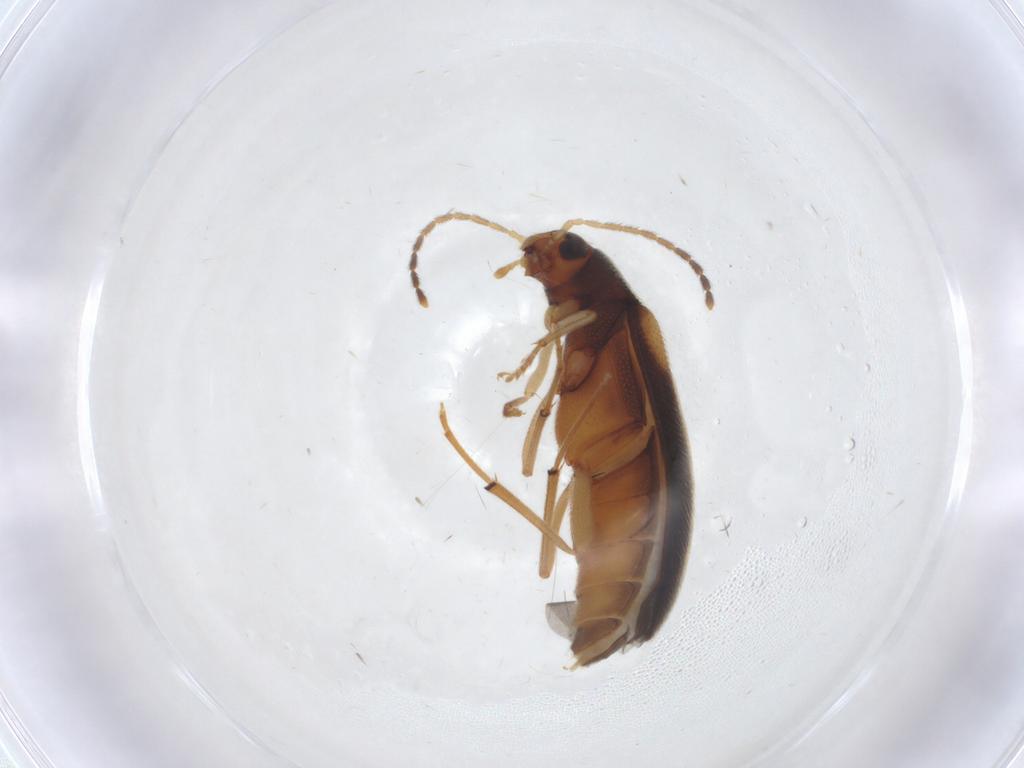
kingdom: Animalia
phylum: Arthropoda
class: Insecta
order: Coleoptera
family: Melandryidae
